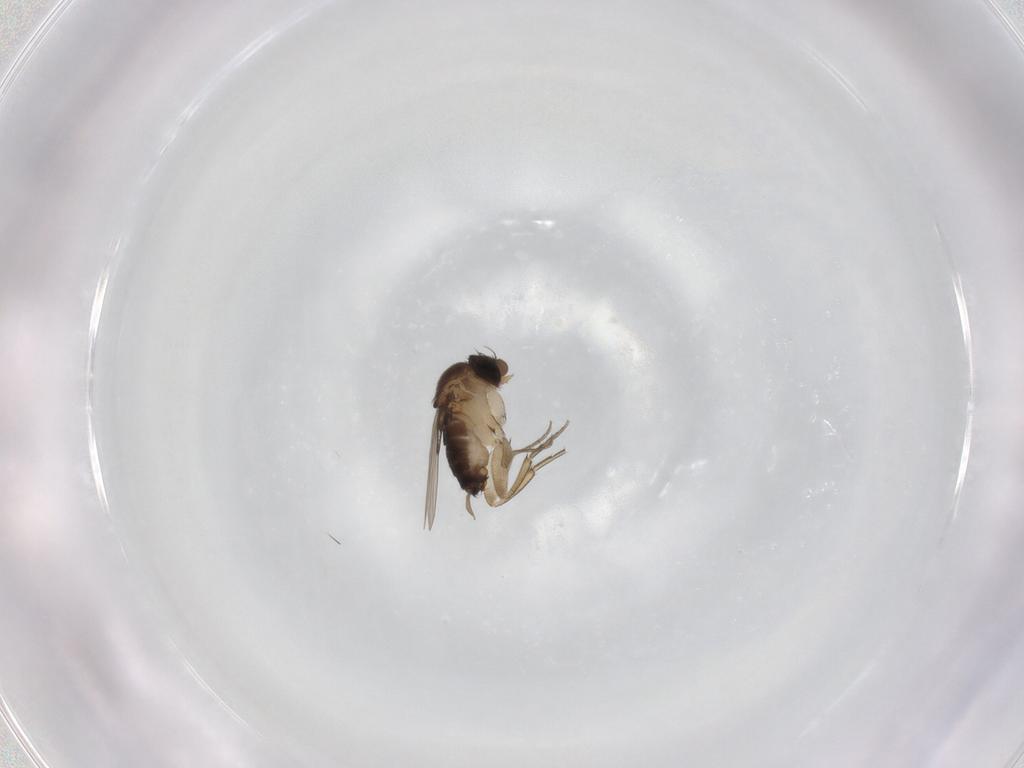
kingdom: Animalia
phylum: Arthropoda
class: Insecta
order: Diptera
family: Phoridae
